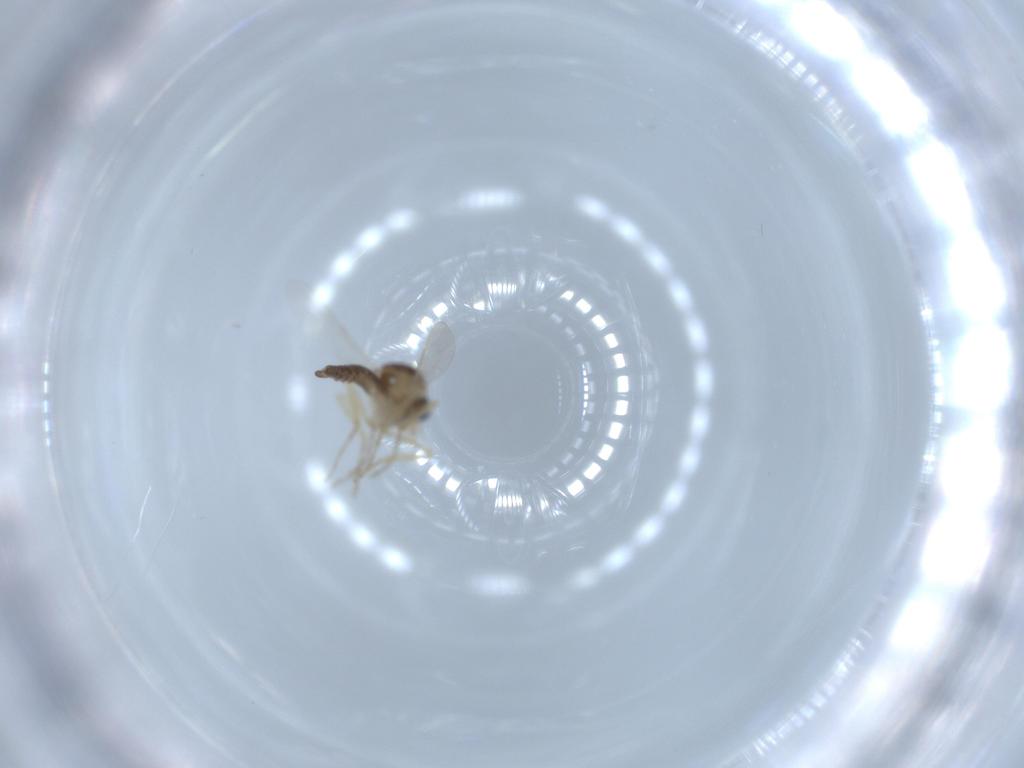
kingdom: Animalia
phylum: Arthropoda
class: Insecta
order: Diptera
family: Ceratopogonidae
